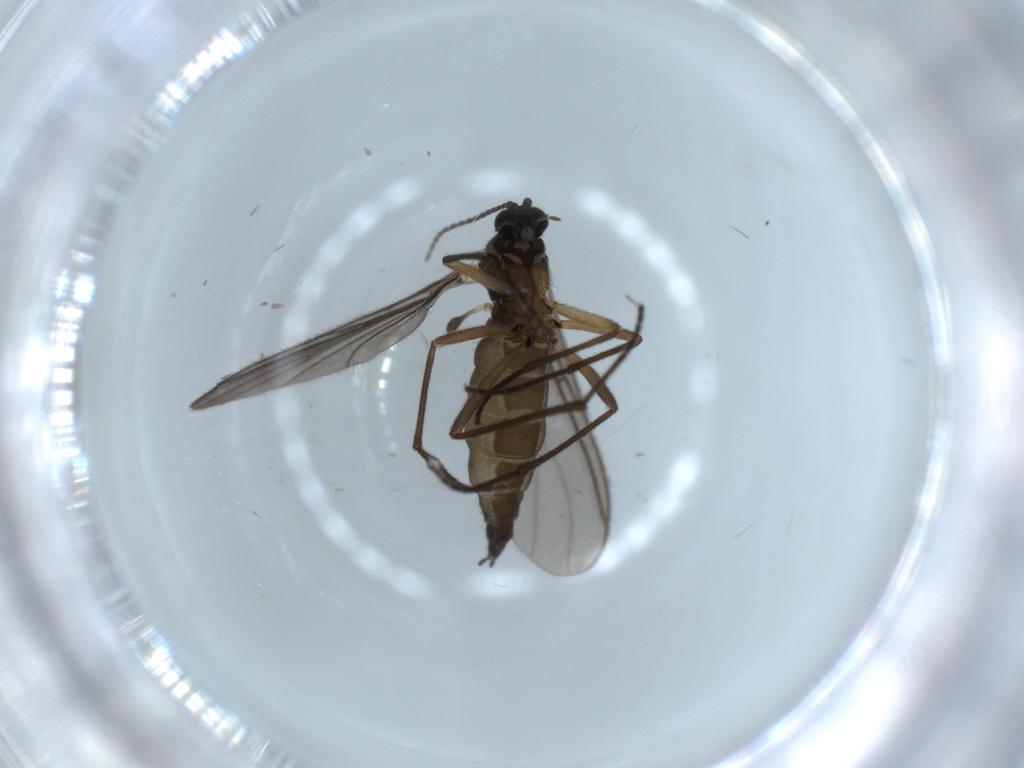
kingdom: Animalia
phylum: Arthropoda
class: Insecta
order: Diptera
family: Sciaridae
